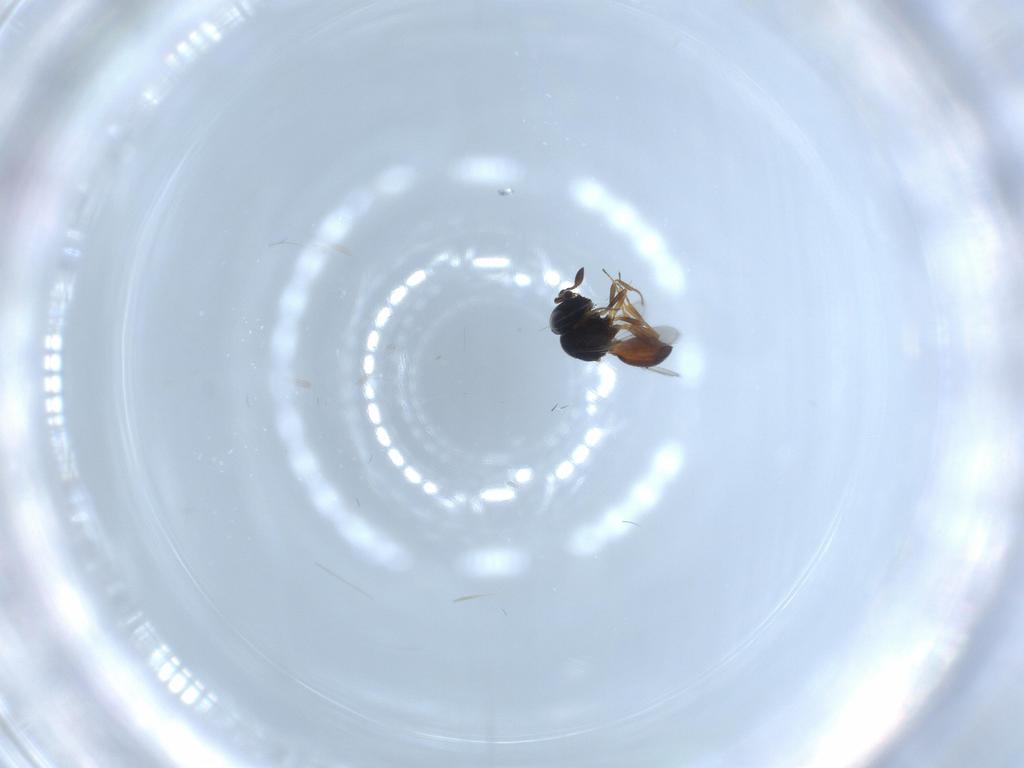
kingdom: Animalia
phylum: Arthropoda
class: Insecta
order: Hymenoptera
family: Scelionidae
